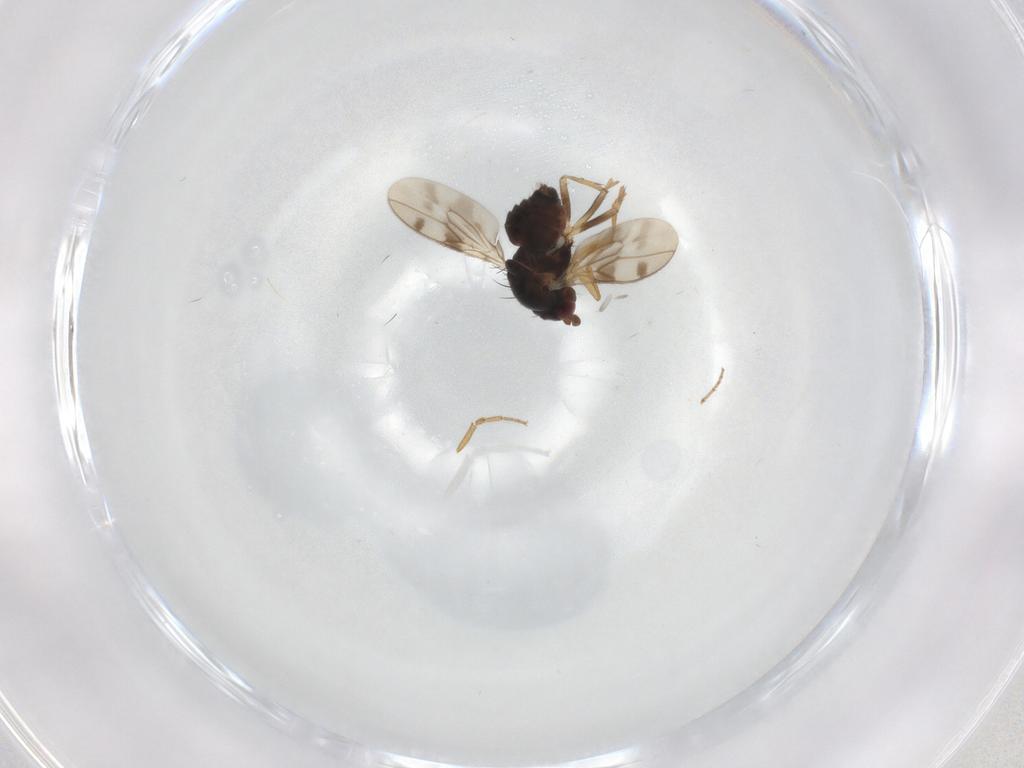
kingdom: Animalia
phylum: Arthropoda
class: Insecta
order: Diptera
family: Sphaeroceridae
